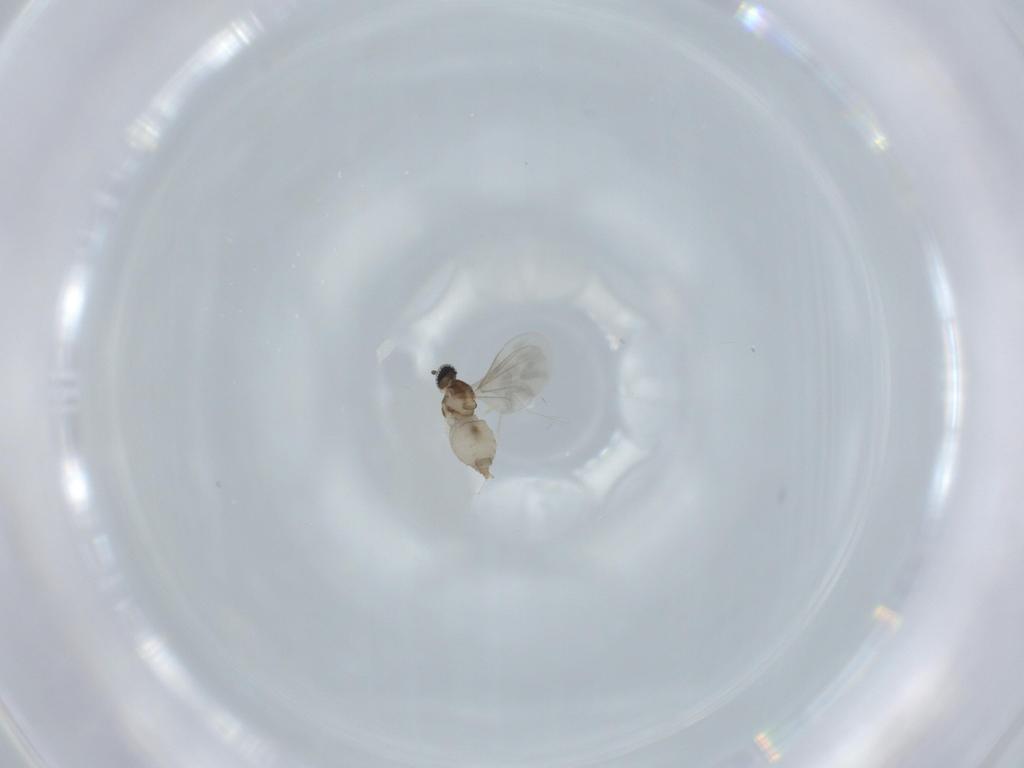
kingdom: Animalia
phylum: Arthropoda
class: Insecta
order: Diptera
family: Cecidomyiidae
